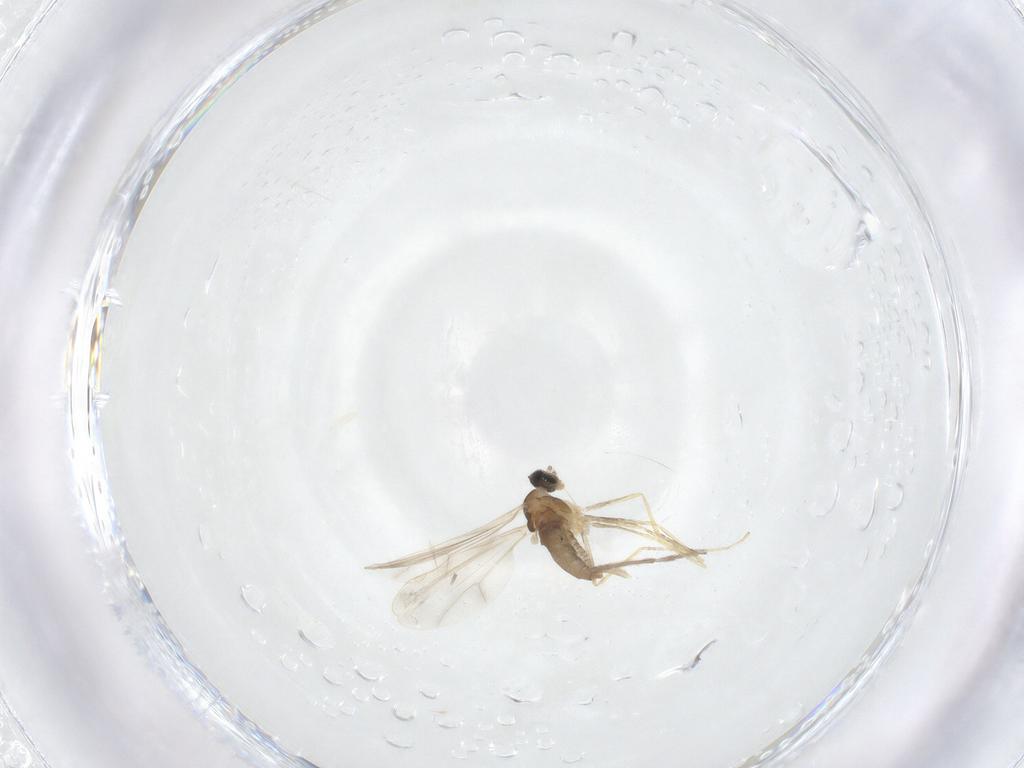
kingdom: Animalia
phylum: Arthropoda
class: Insecta
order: Diptera
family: Cecidomyiidae
